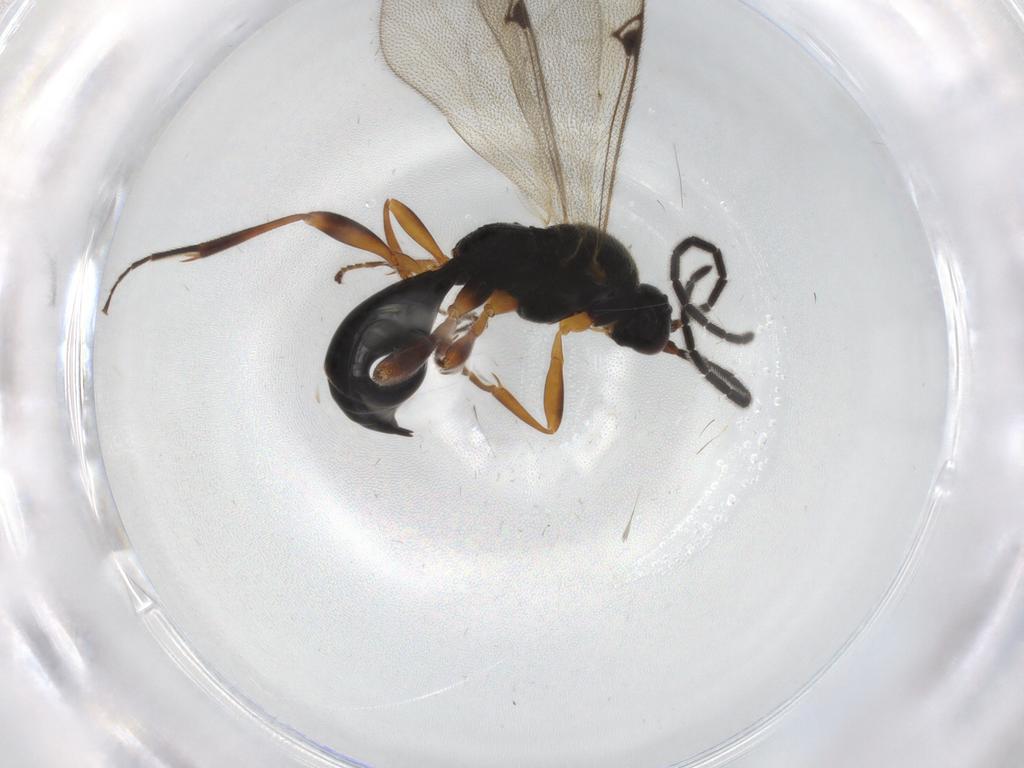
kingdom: Animalia
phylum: Arthropoda
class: Insecta
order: Hymenoptera
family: Proctotrupidae
